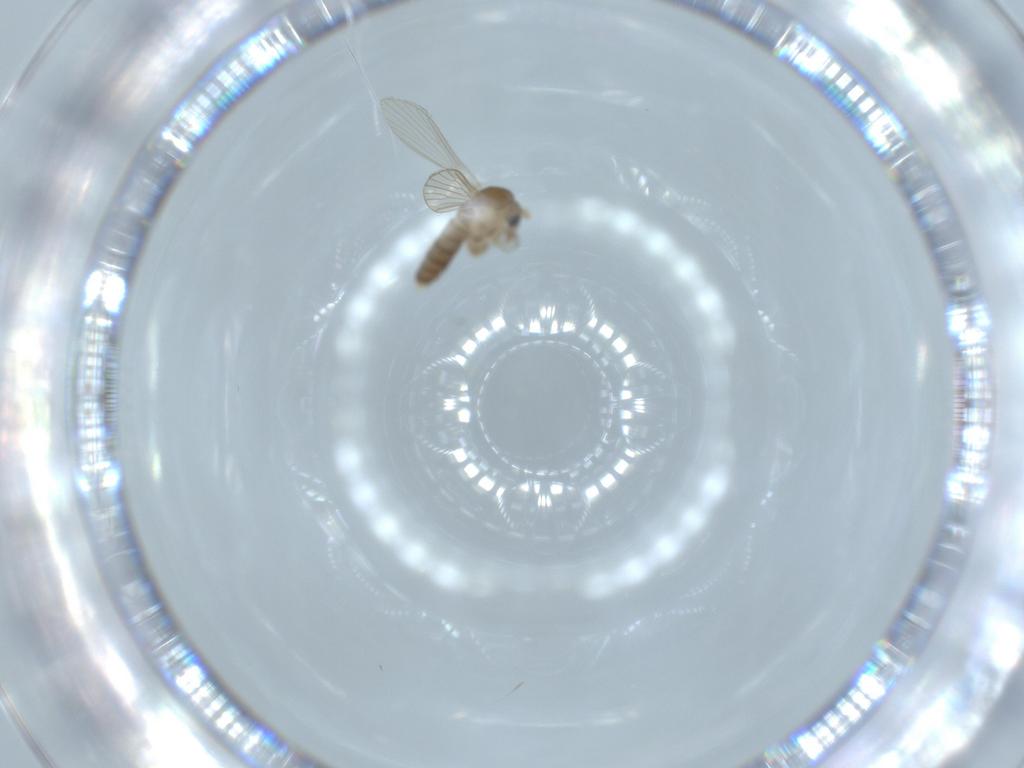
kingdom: Animalia
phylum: Arthropoda
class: Insecta
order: Diptera
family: Psychodidae
